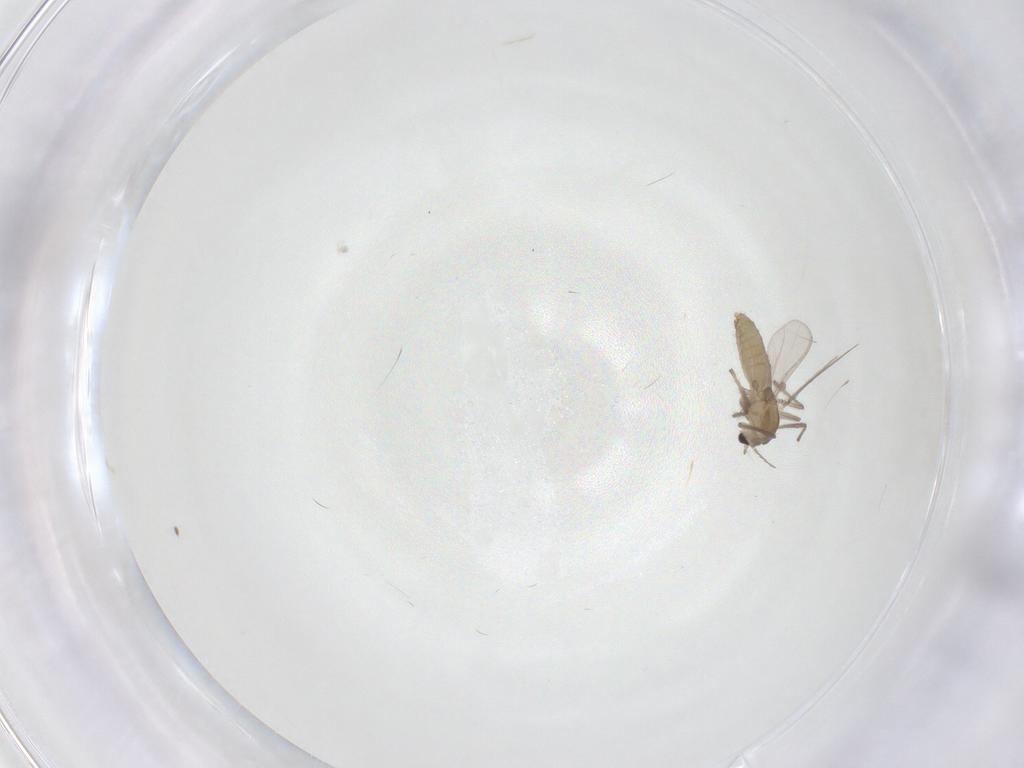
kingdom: Animalia
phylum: Arthropoda
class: Insecta
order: Diptera
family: Chironomidae
